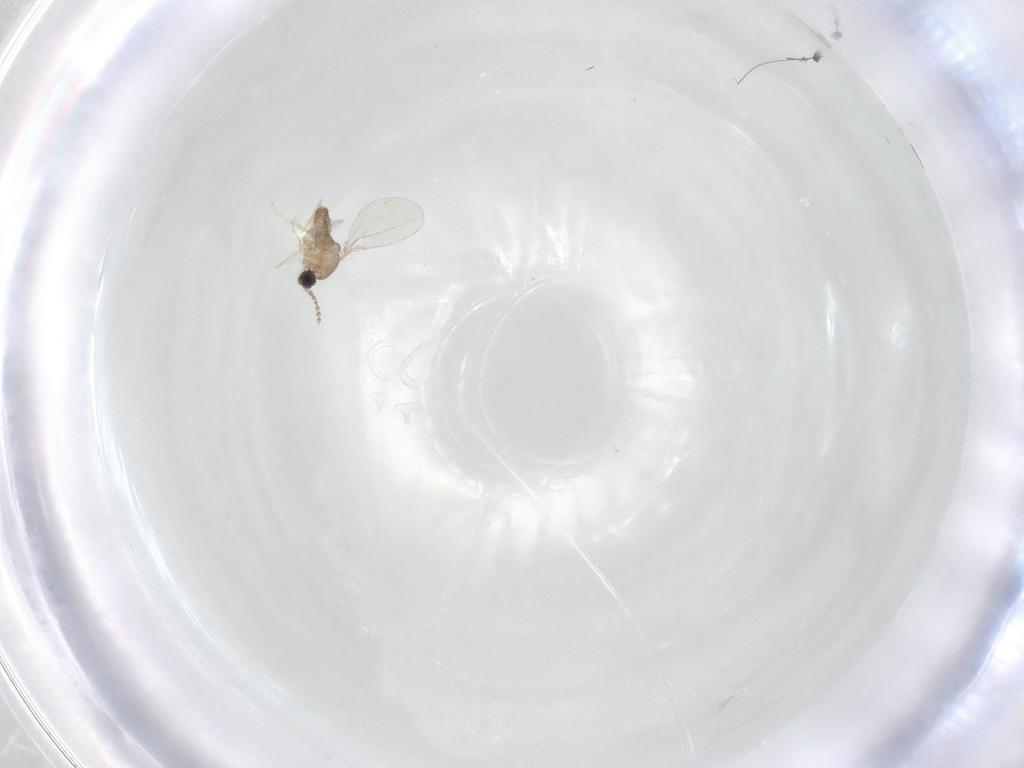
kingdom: Animalia
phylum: Arthropoda
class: Insecta
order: Diptera
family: Cecidomyiidae
